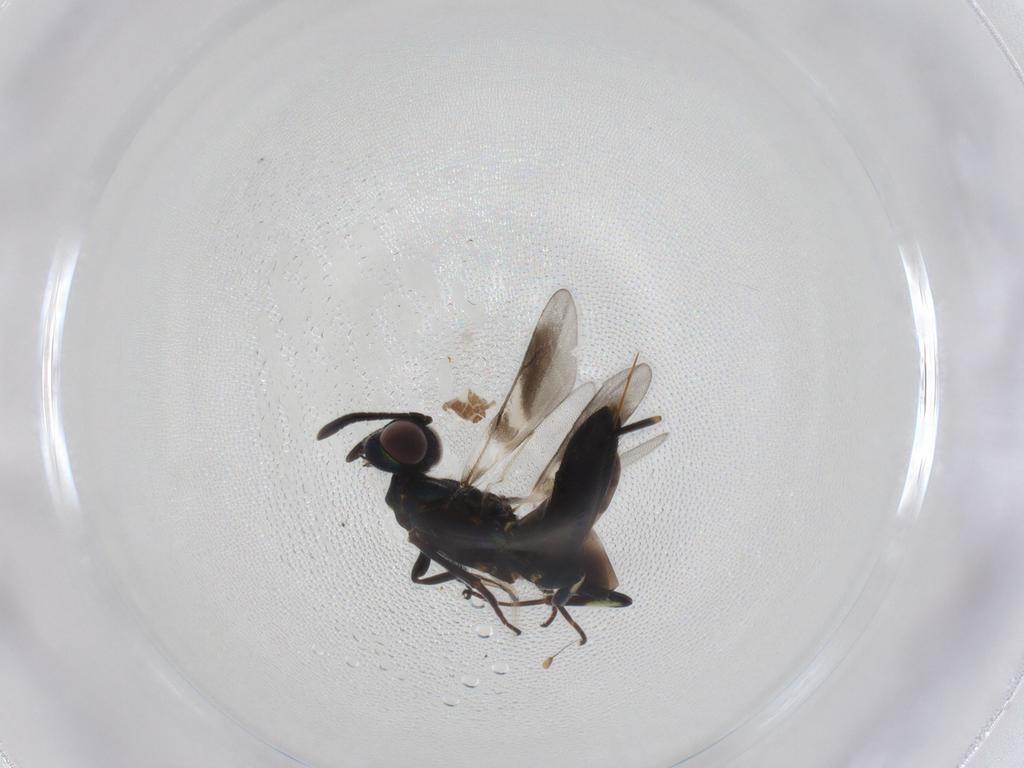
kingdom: Animalia
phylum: Arthropoda
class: Insecta
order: Hymenoptera
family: Eupelmidae
